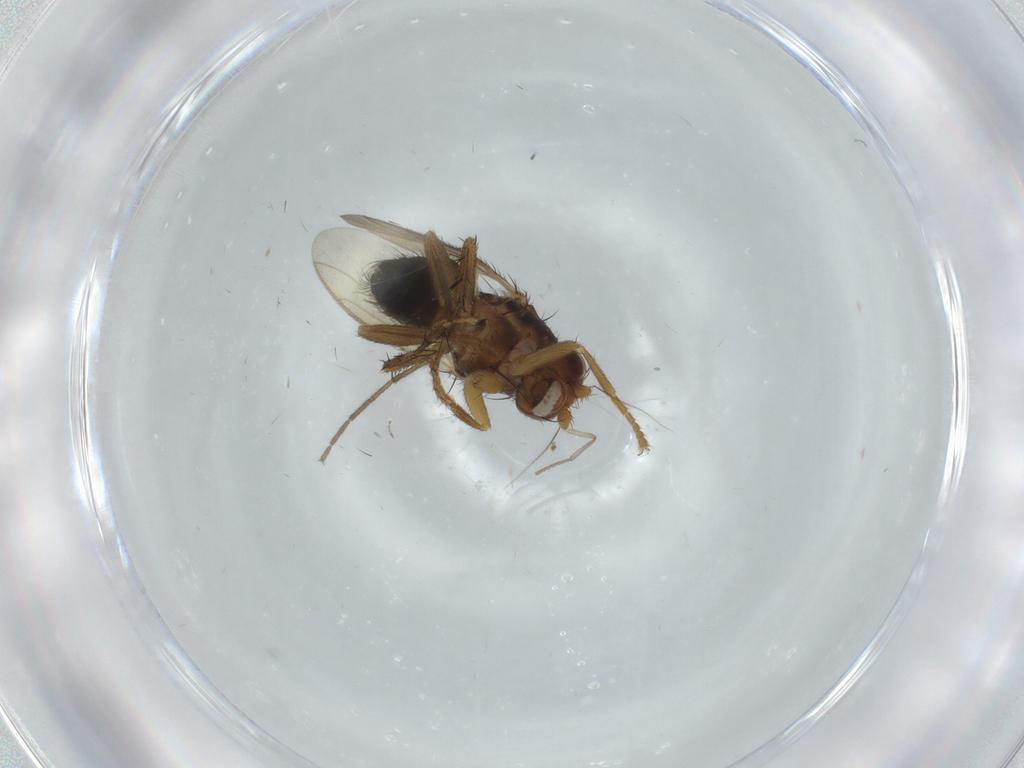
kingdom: Animalia
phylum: Arthropoda
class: Insecta
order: Diptera
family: Sphaeroceridae
